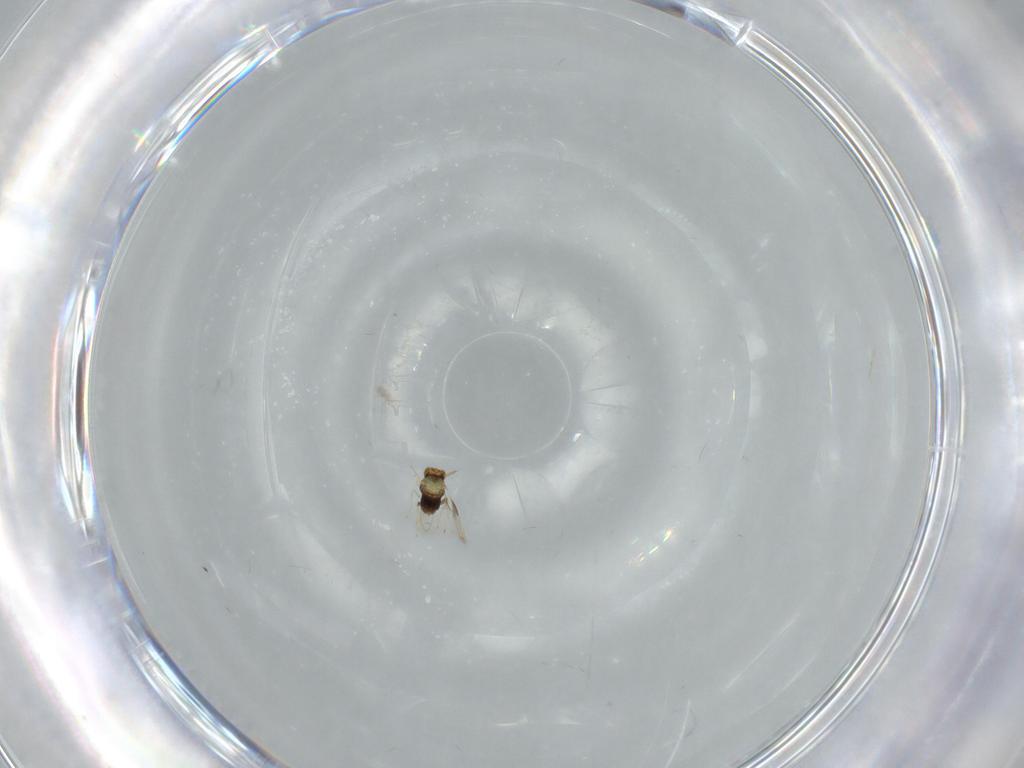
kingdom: Animalia
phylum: Arthropoda
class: Insecta
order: Hymenoptera
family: Aphelinidae
